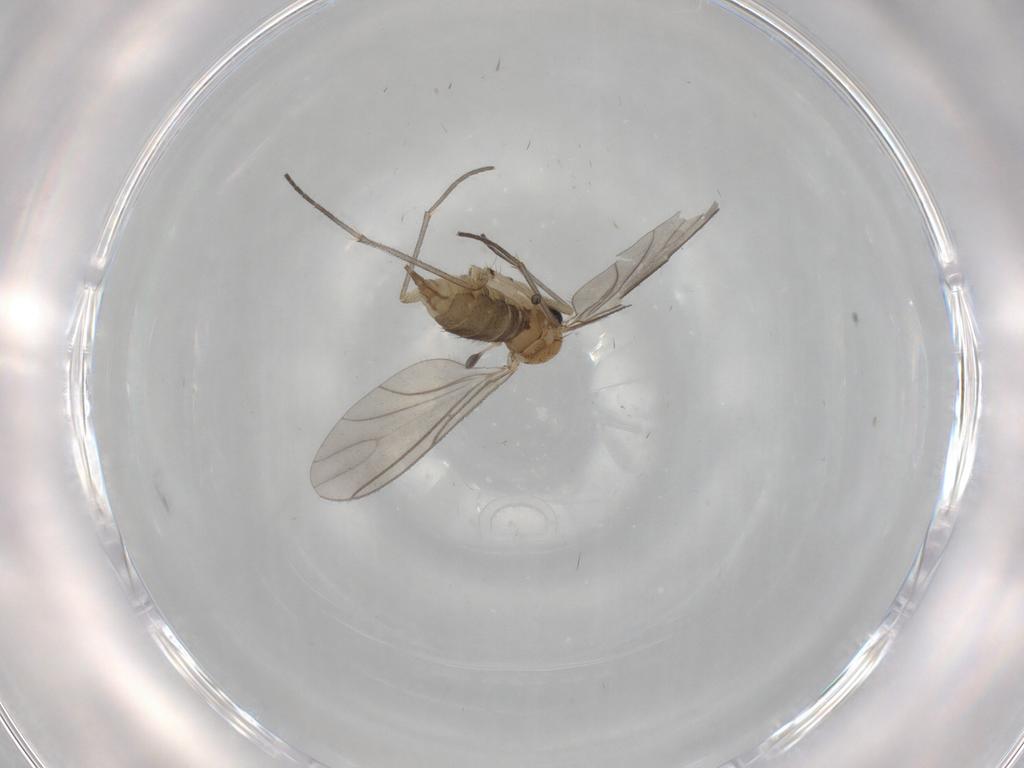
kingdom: Animalia
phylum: Arthropoda
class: Insecta
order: Diptera
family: Sciaridae
